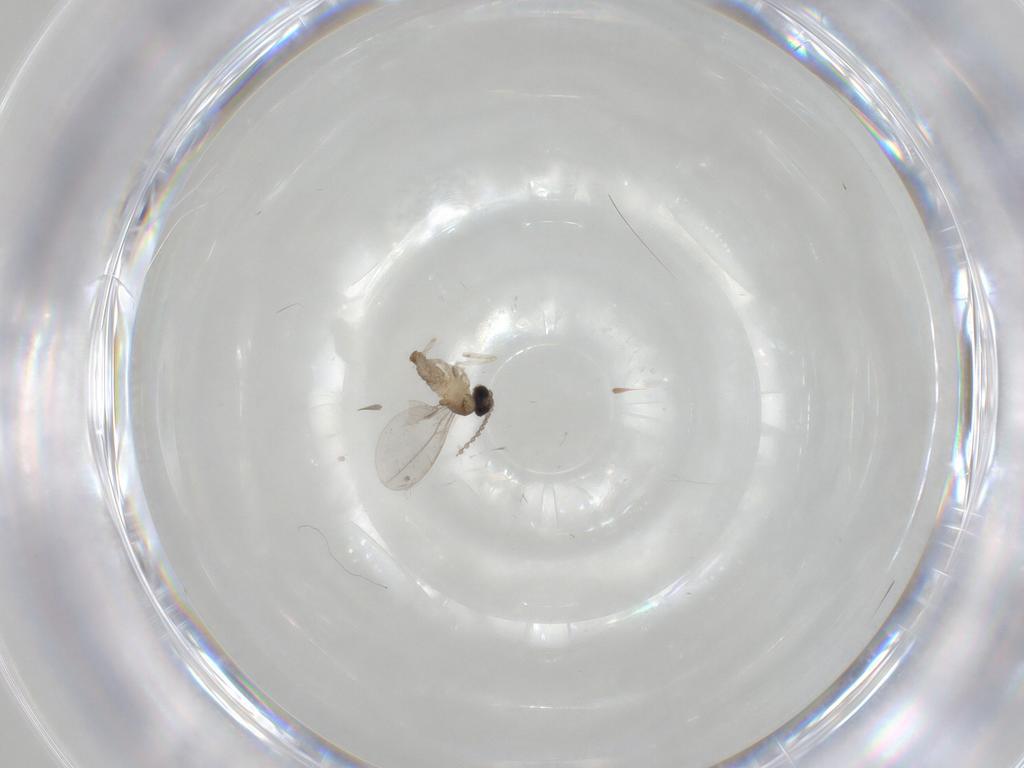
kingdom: Animalia
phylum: Arthropoda
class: Insecta
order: Diptera
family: Cecidomyiidae
